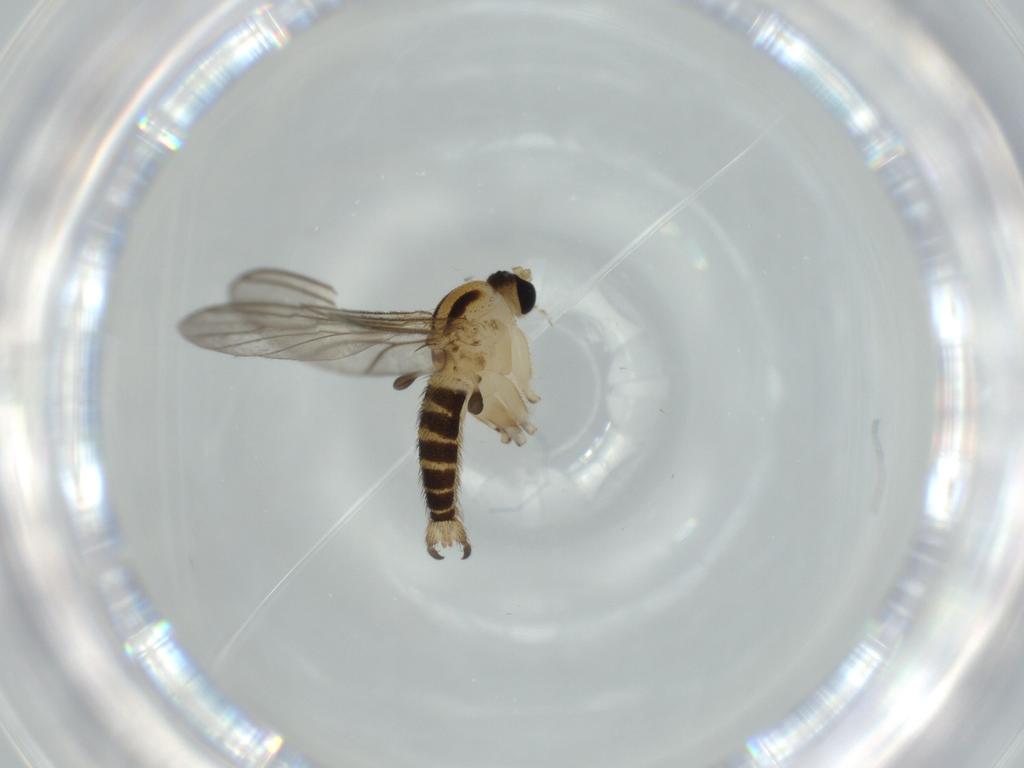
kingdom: Animalia
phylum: Arthropoda
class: Insecta
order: Diptera
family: Sciaridae
